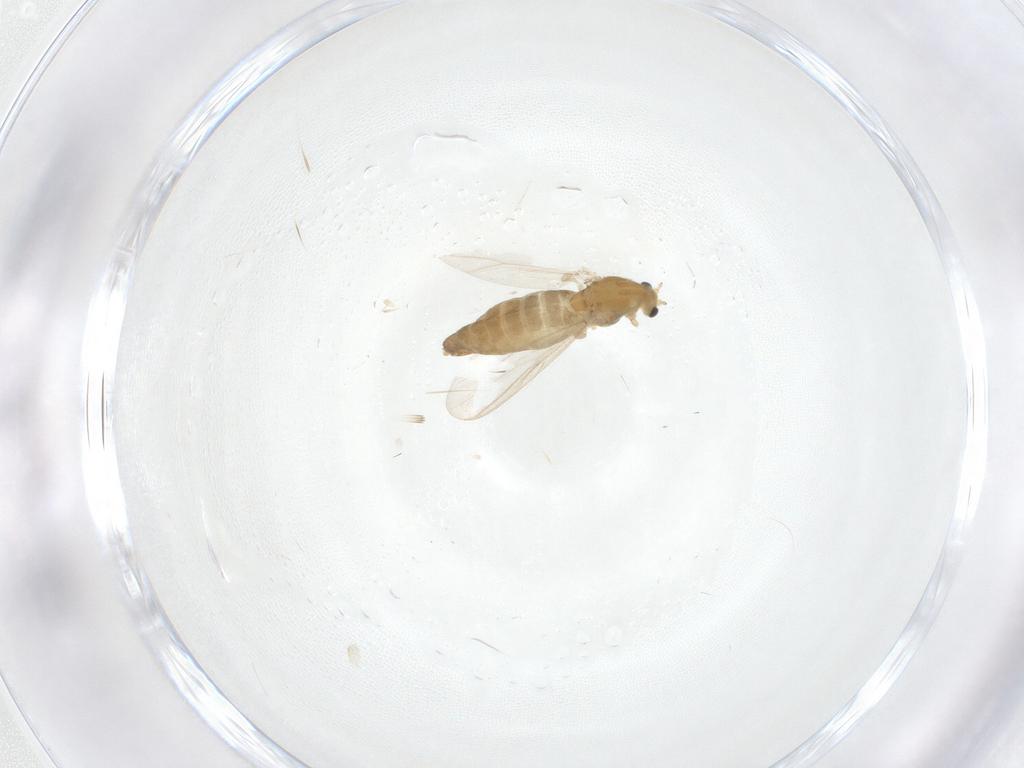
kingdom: Animalia
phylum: Arthropoda
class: Insecta
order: Diptera
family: Chironomidae
